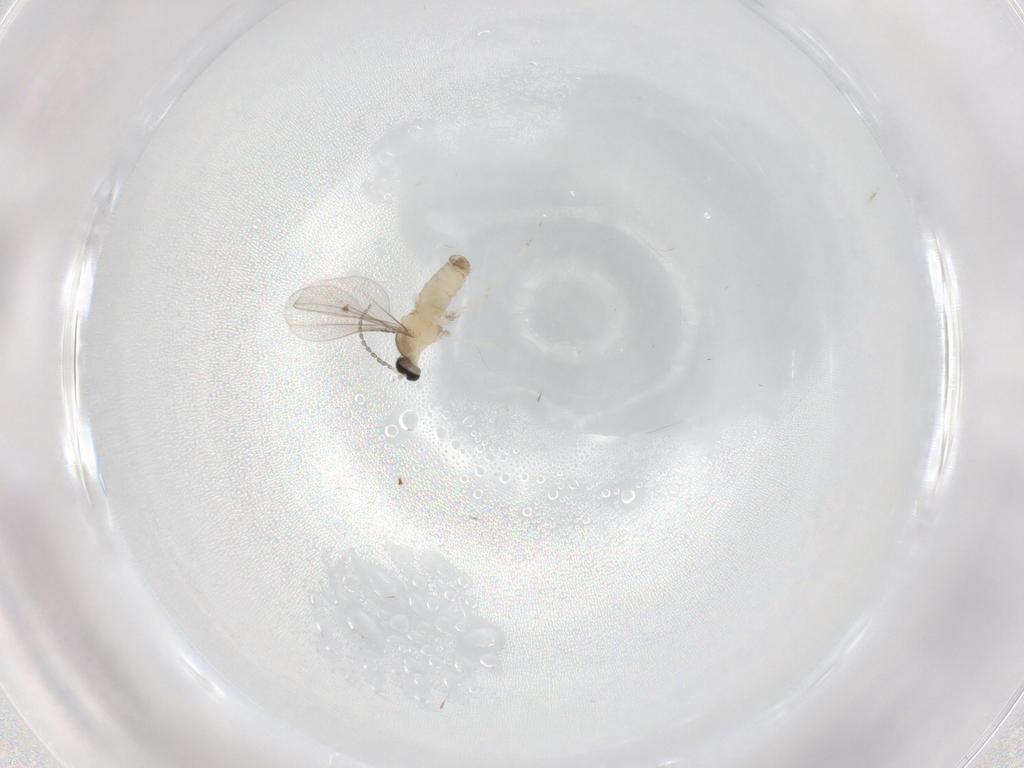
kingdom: Animalia
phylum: Arthropoda
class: Insecta
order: Diptera
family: Cecidomyiidae
